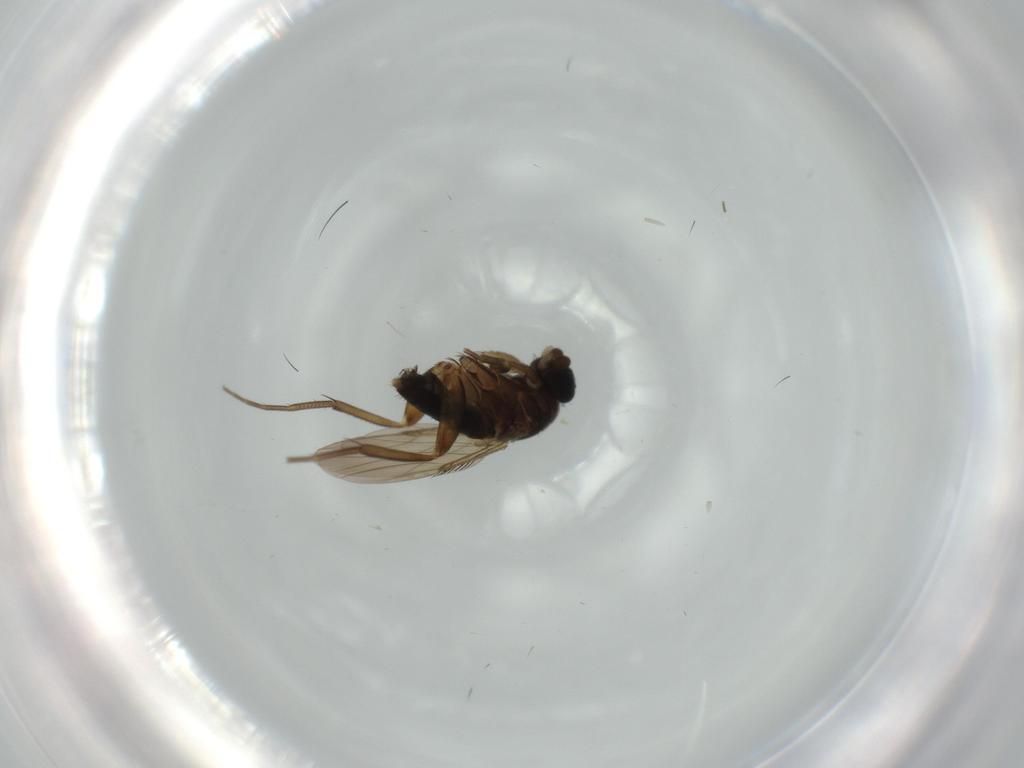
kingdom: Animalia
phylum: Arthropoda
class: Insecta
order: Diptera
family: Phoridae
